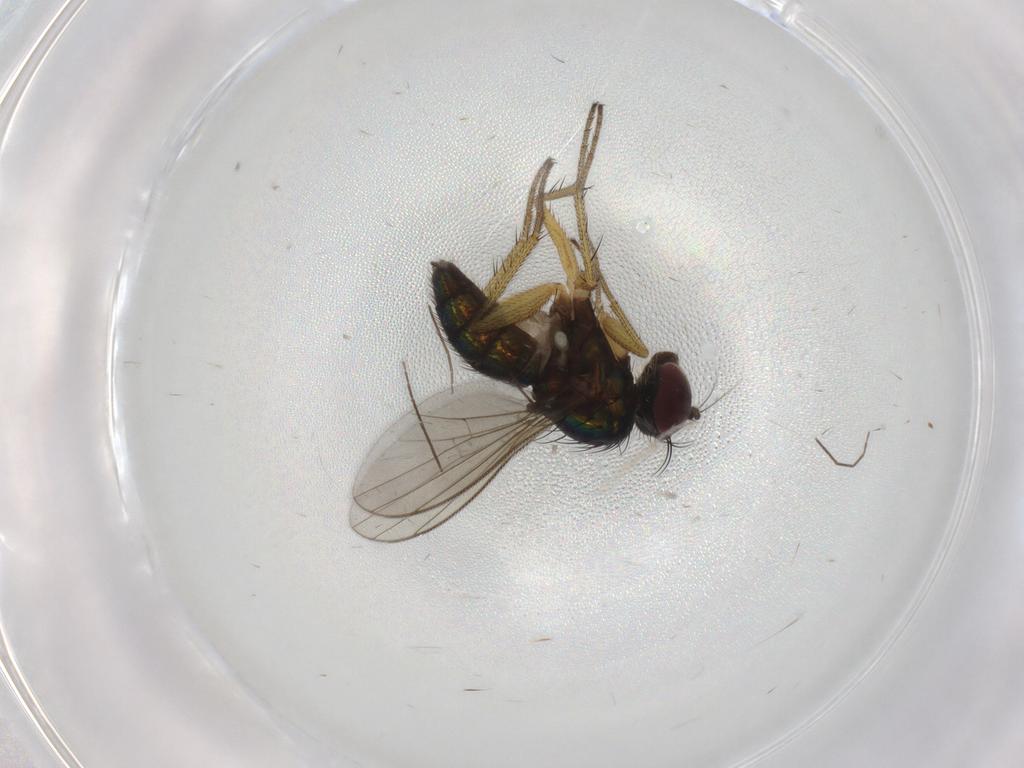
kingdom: Animalia
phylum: Arthropoda
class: Insecta
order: Diptera
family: Chironomidae
